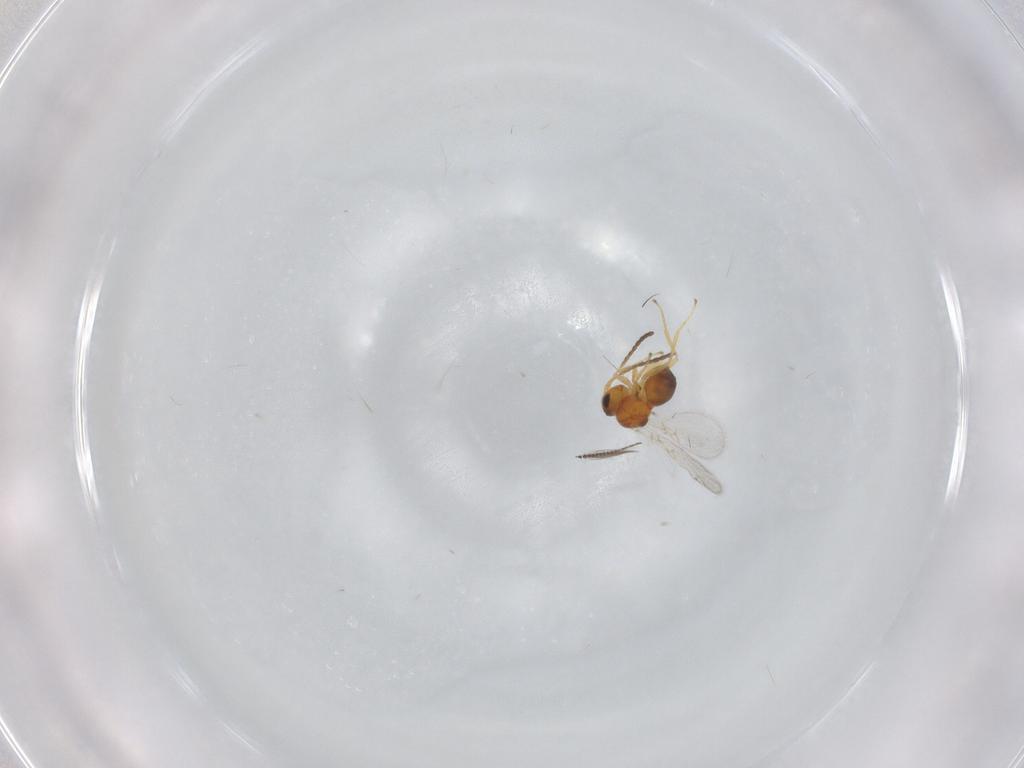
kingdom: Animalia
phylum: Arthropoda
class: Insecta
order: Hymenoptera
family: Figitidae
